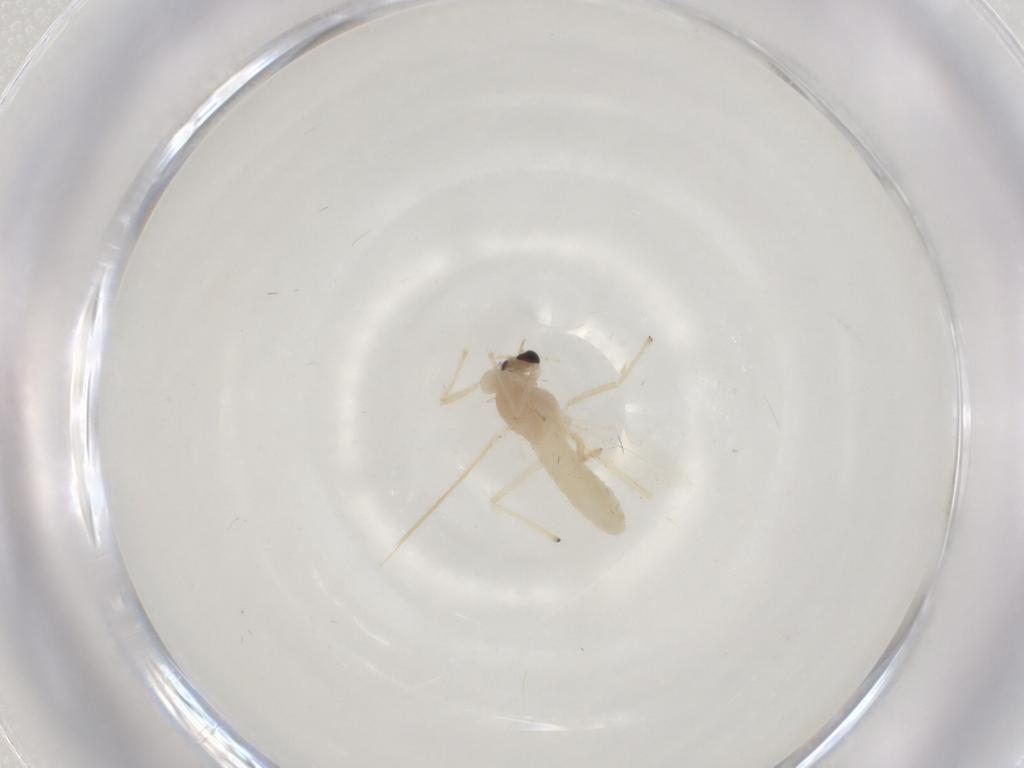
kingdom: Animalia
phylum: Arthropoda
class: Insecta
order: Diptera
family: Chironomidae
